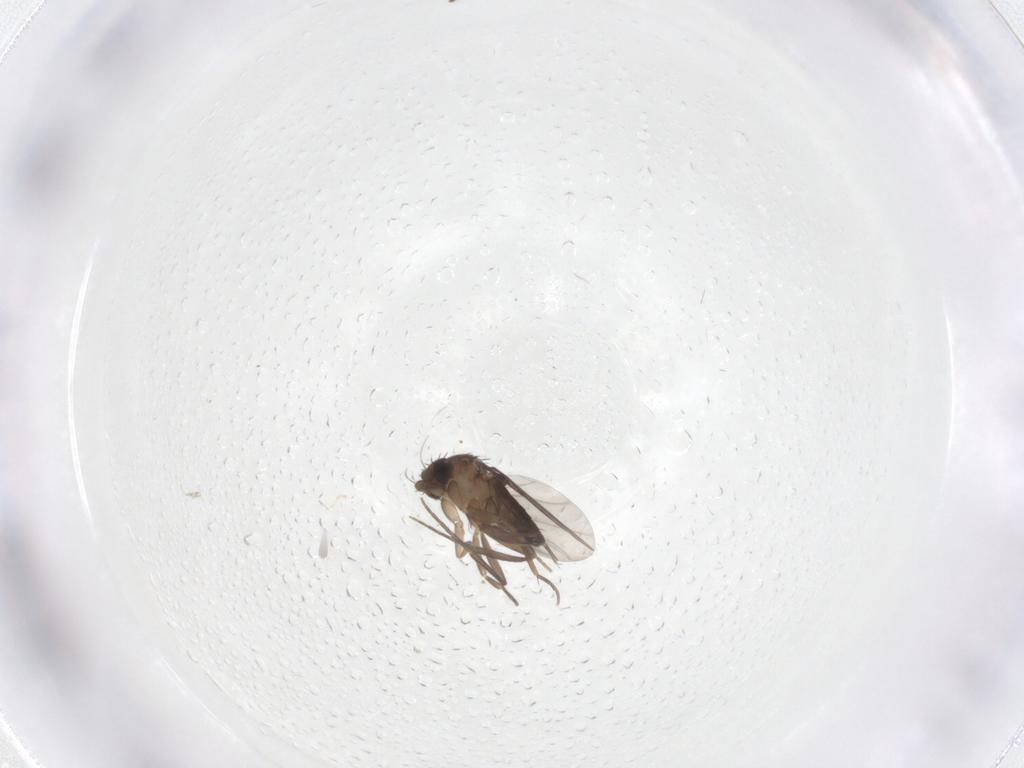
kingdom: Animalia
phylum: Arthropoda
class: Insecta
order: Diptera
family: Phoridae
